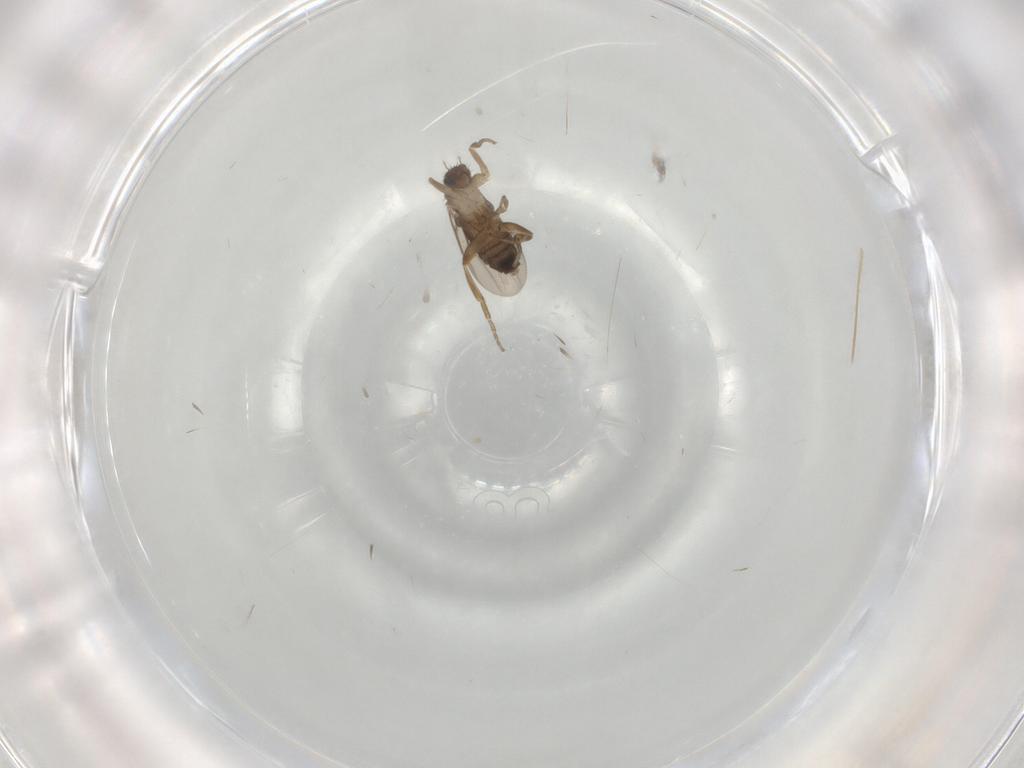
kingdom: Animalia
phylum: Arthropoda
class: Insecta
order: Diptera
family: Phoridae
